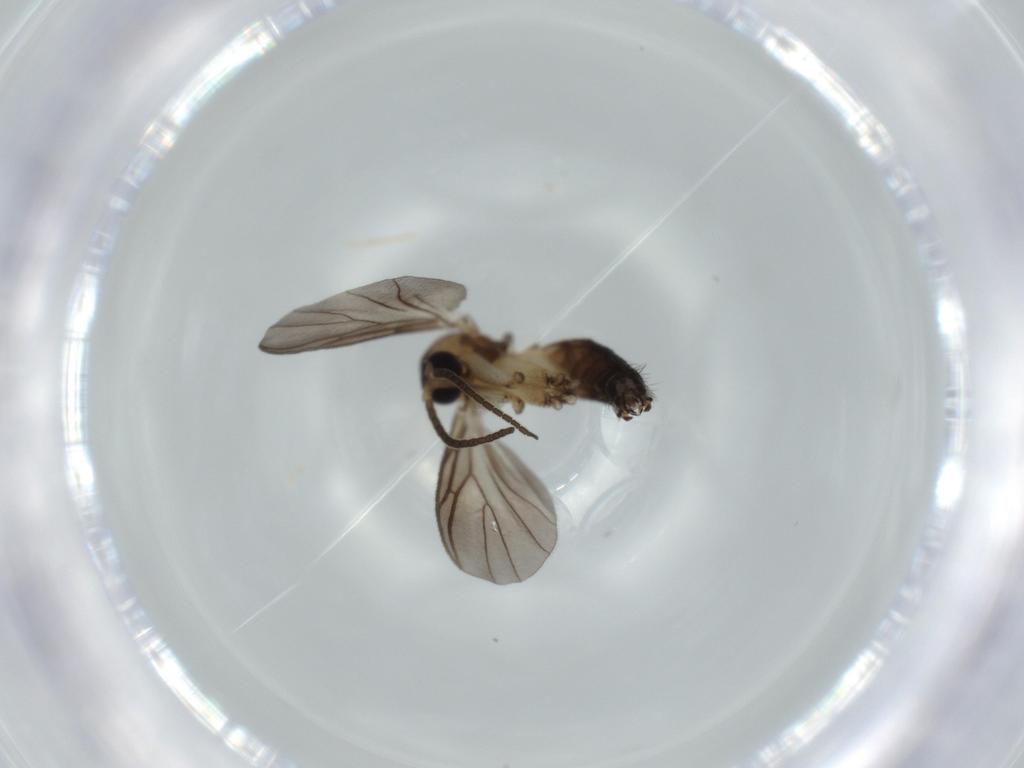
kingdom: Animalia
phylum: Arthropoda
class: Insecta
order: Diptera
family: Mycetophilidae
